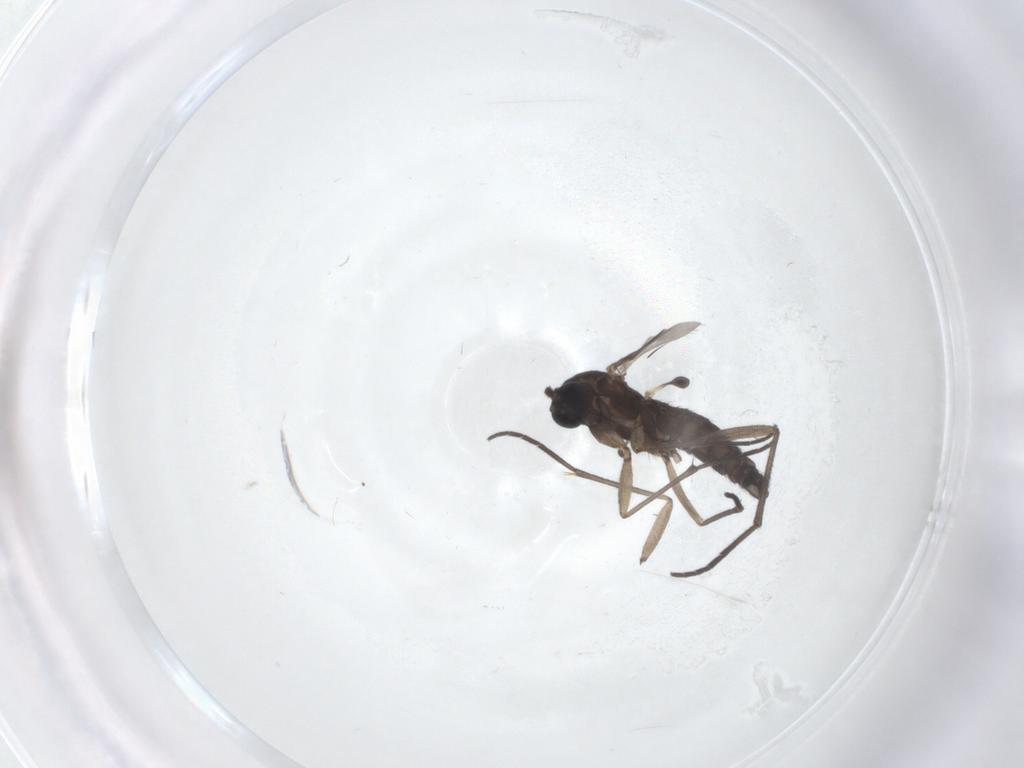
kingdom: Animalia
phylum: Arthropoda
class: Insecta
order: Diptera
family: Sciaridae
